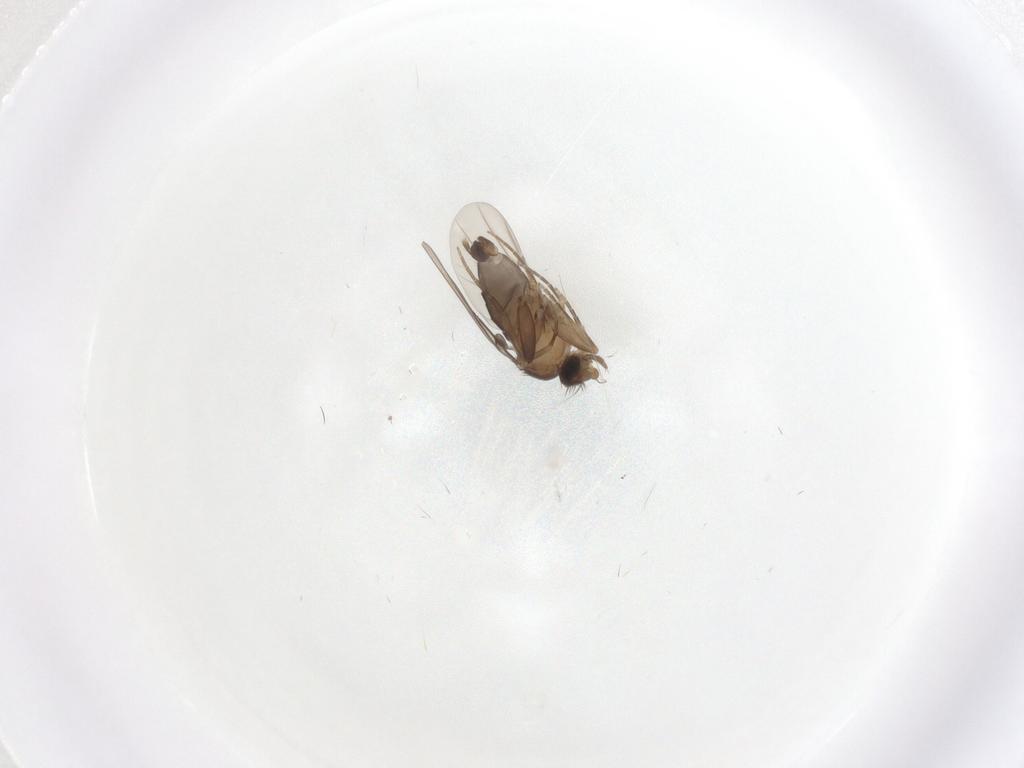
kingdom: Animalia
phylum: Arthropoda
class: Insecta
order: Diptera
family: Phoridae
